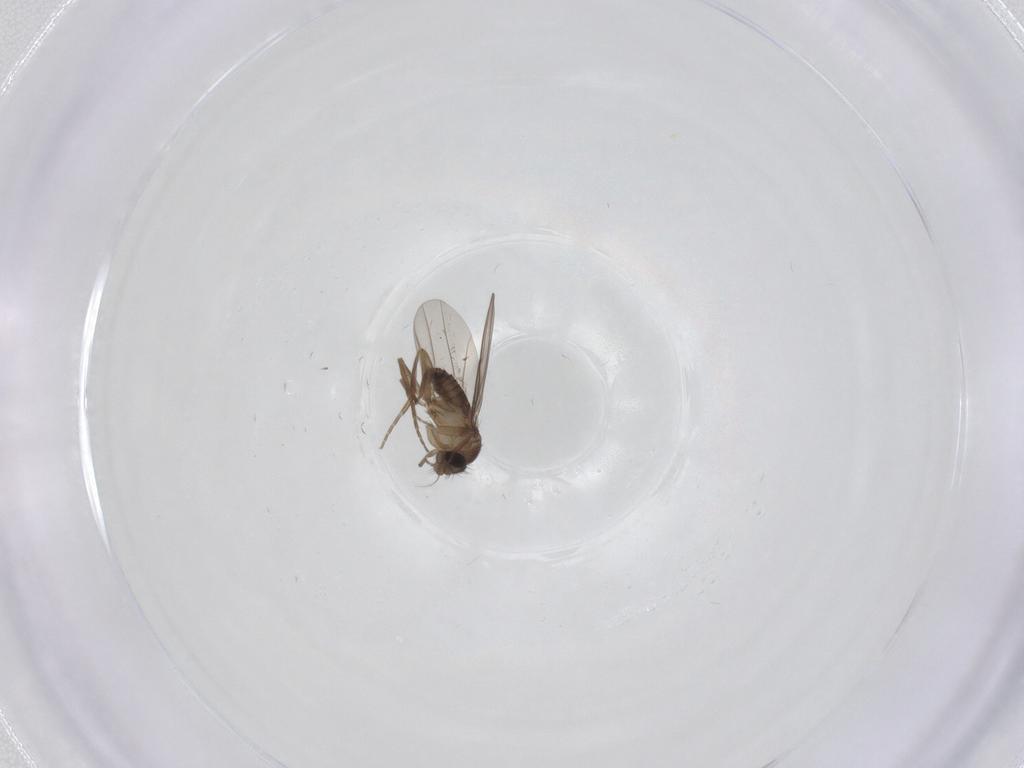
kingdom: Animalia
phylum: Arthropoda
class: Insecta
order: Diptera
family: Phoridae
